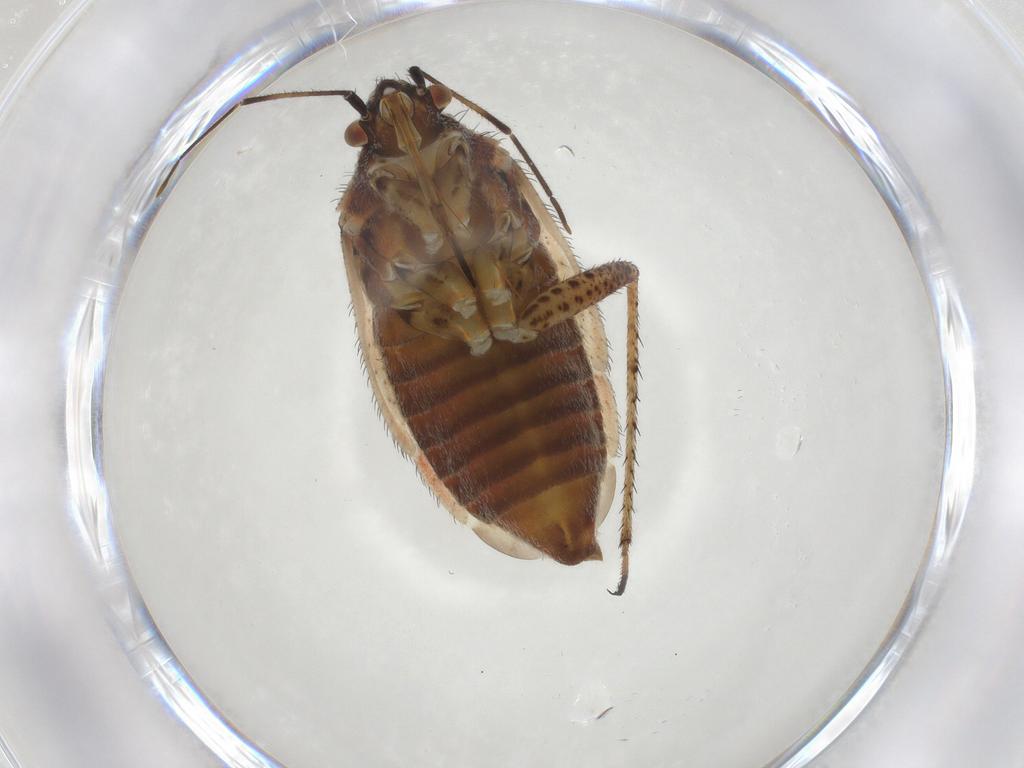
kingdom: Animalia
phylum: Arthropoda
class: Insecta
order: Hemiptera
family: Miridae
